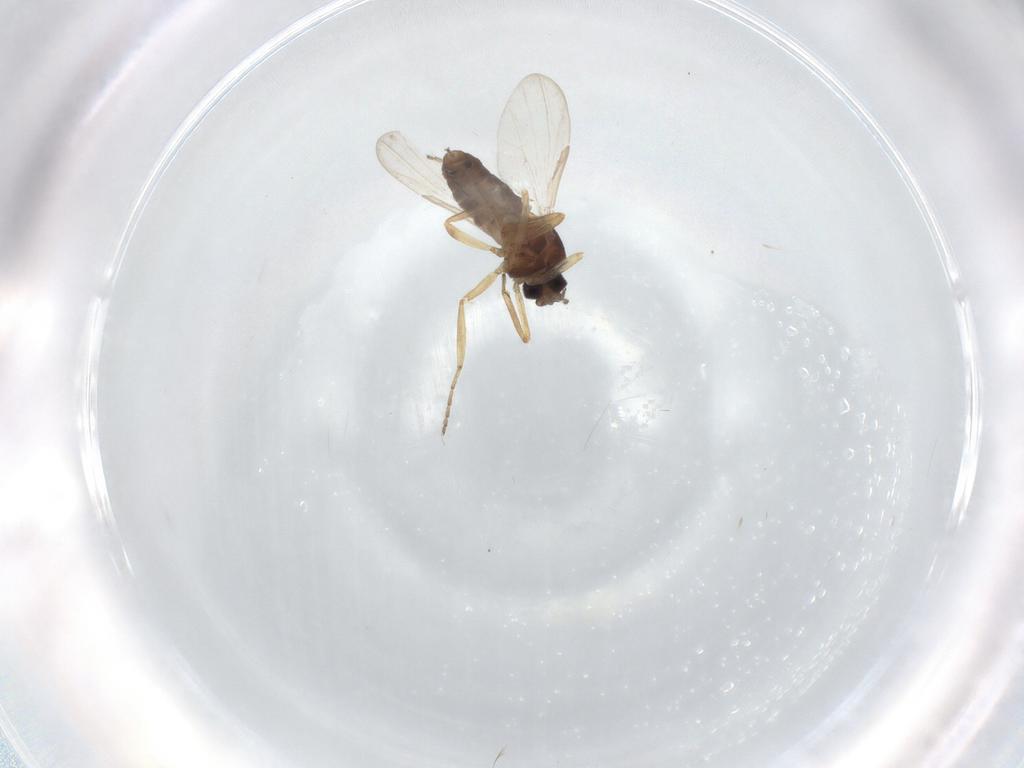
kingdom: Animalia
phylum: Arthropoda
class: Insecta
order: Diptera
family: Ceratopogonidae
